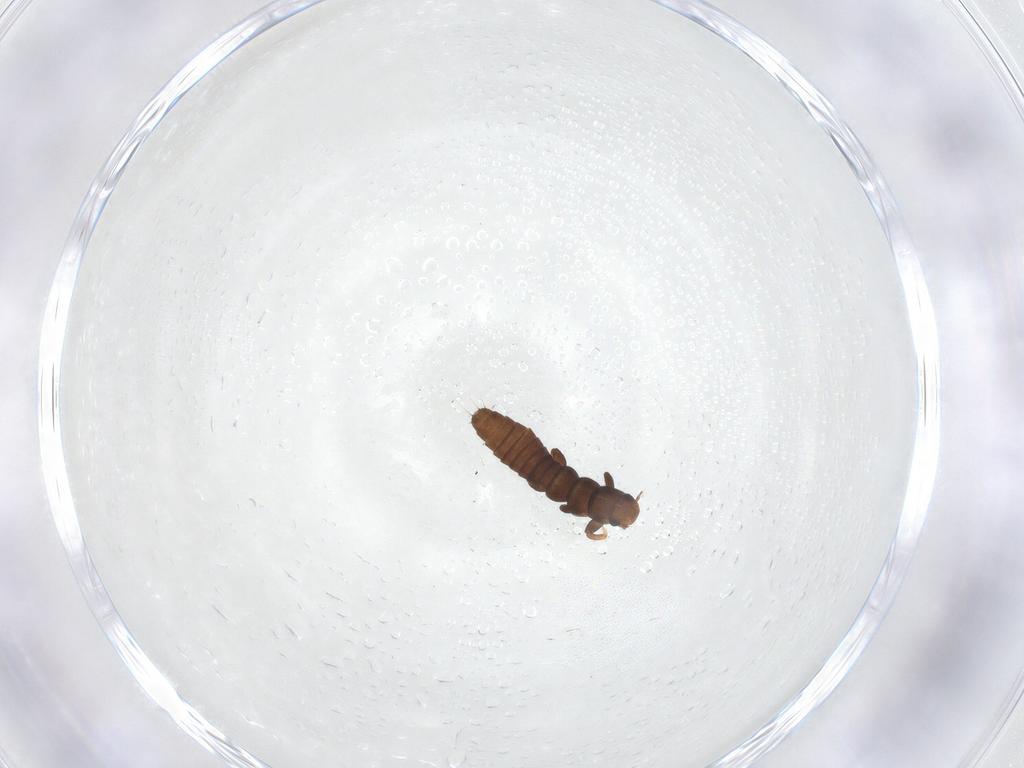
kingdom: Animalia
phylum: Arthropoda
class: Insecta
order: Coleoptera
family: Meloidae
